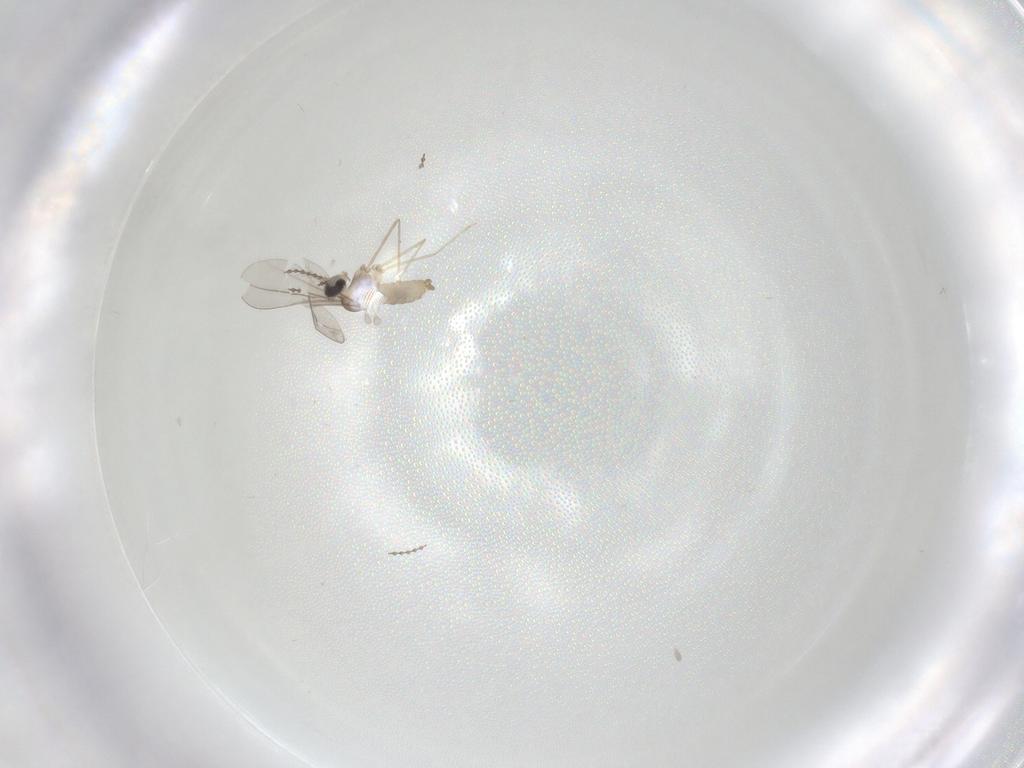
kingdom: Animalia
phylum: Arthropoda
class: Insecta
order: Diptera
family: Cecidomyiidae
